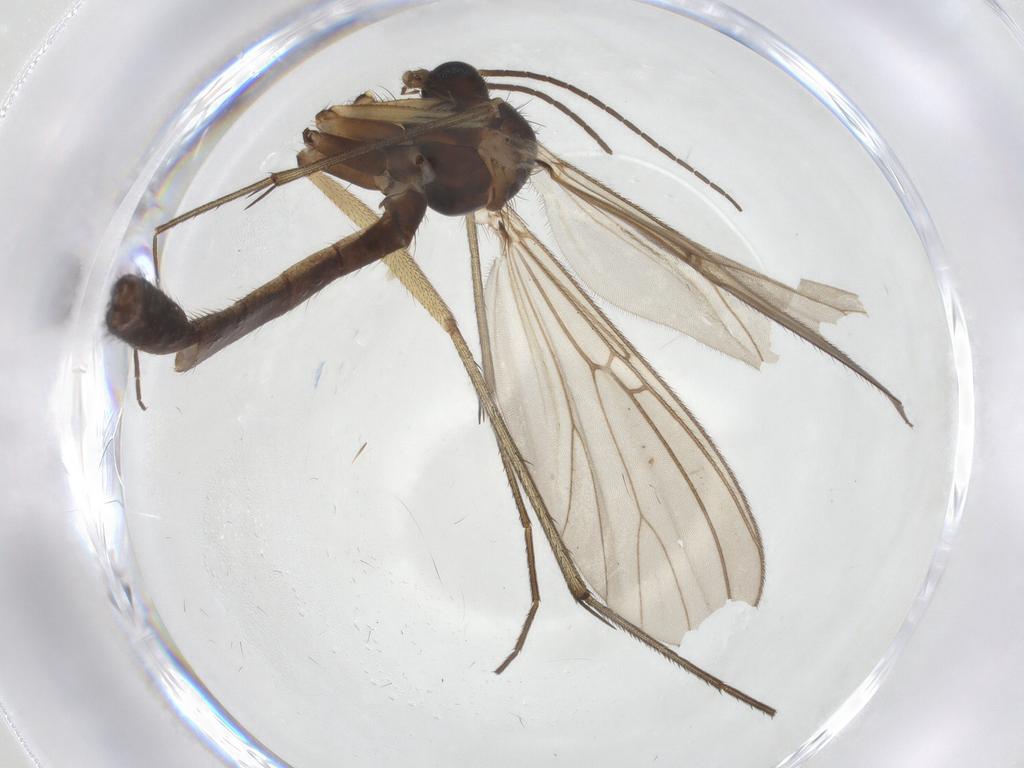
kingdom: Animalia
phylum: Arthropoda
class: Insecta
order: Diptera
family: Mycetophilidae
